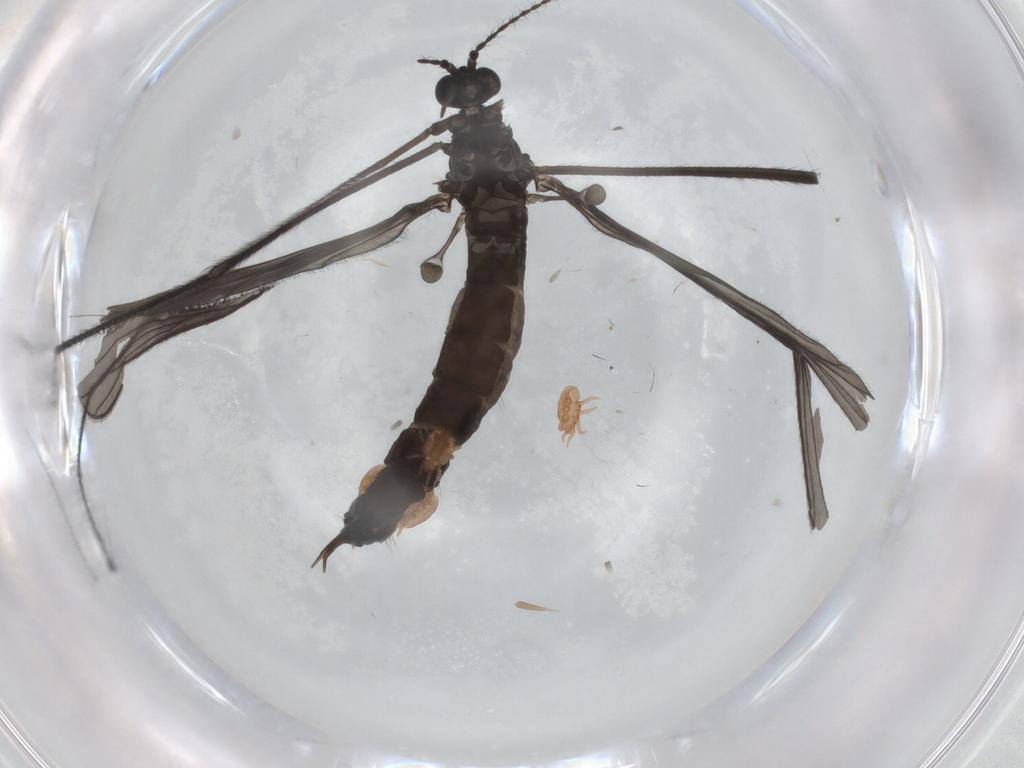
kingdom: Animalia
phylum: Arthropoda
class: Insecta
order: Diptera
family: Limoniidae
